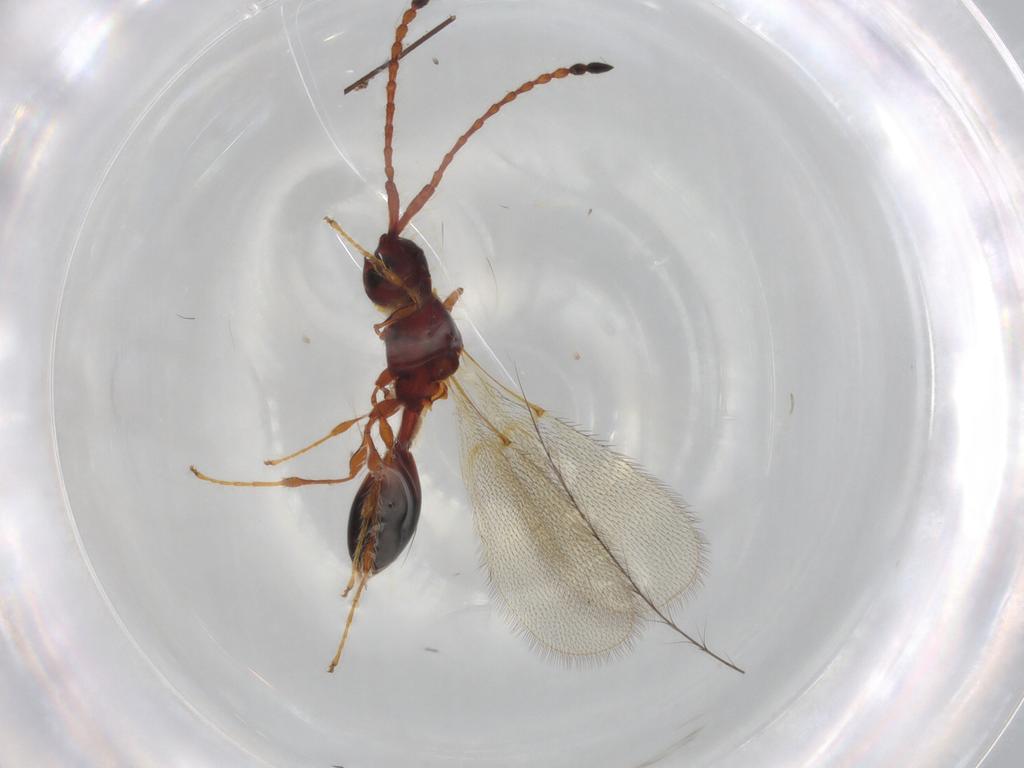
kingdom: Animalia
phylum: Arthropoda
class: Insecta
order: Hymenoptera
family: Diapriidae
